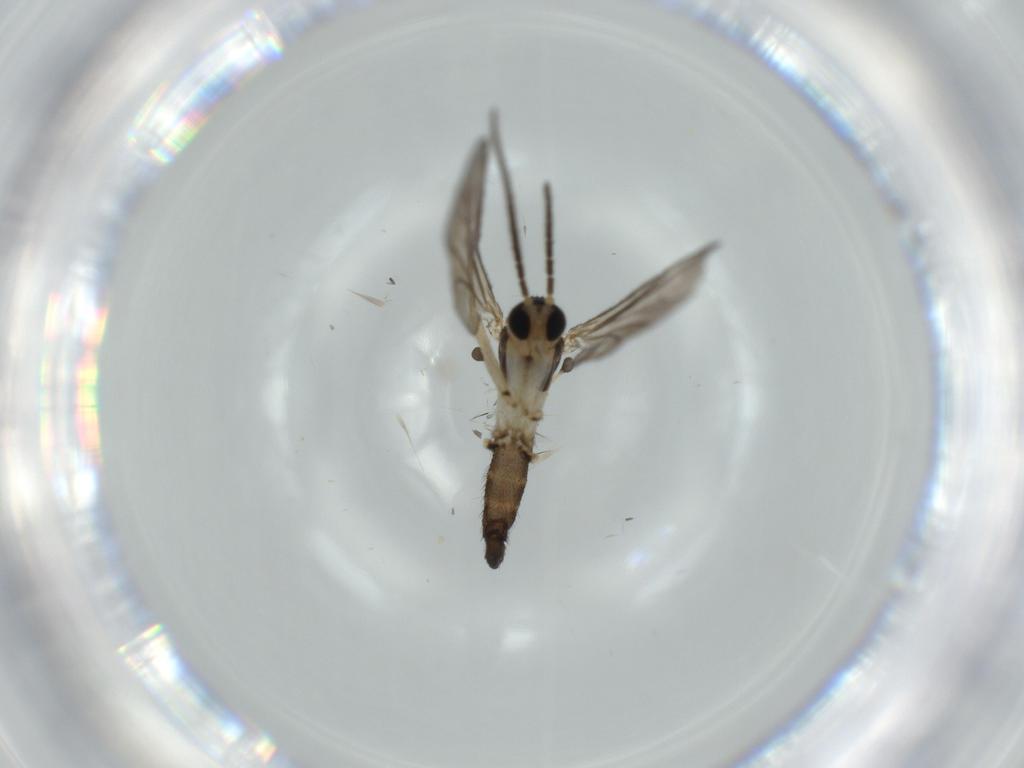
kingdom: Animalia
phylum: Arthropoda
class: Insecta
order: Diptera
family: Sciaridae
